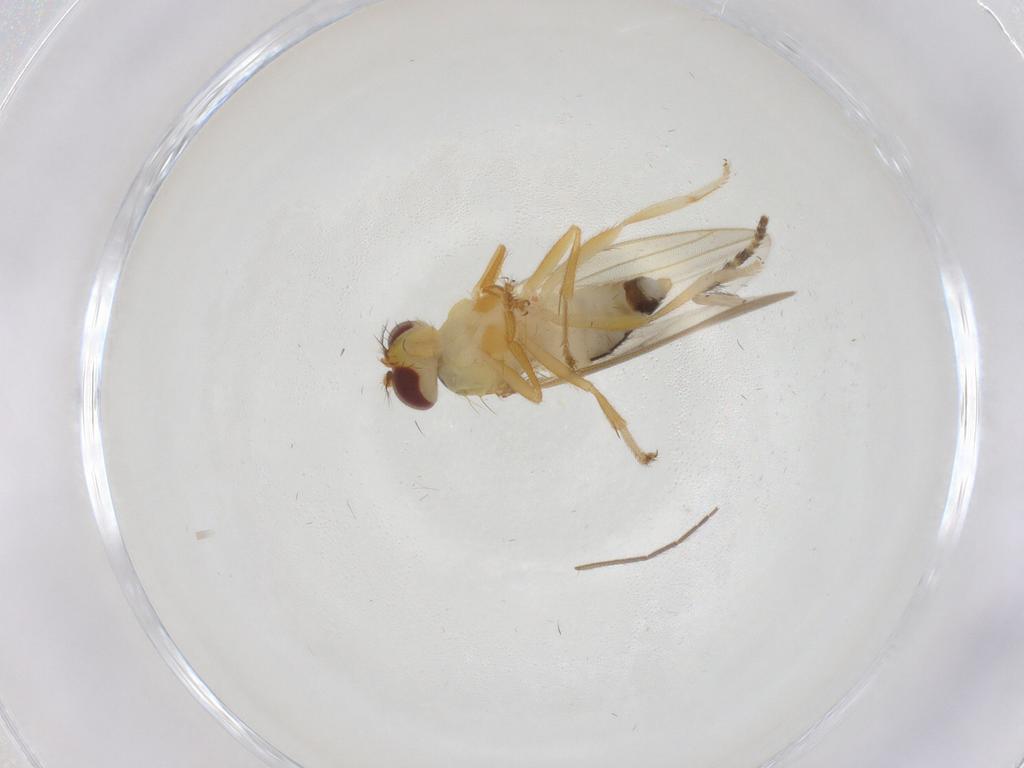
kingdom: Animalia
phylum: Arthropoda
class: Insecta
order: Diptera
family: Periscelididae
